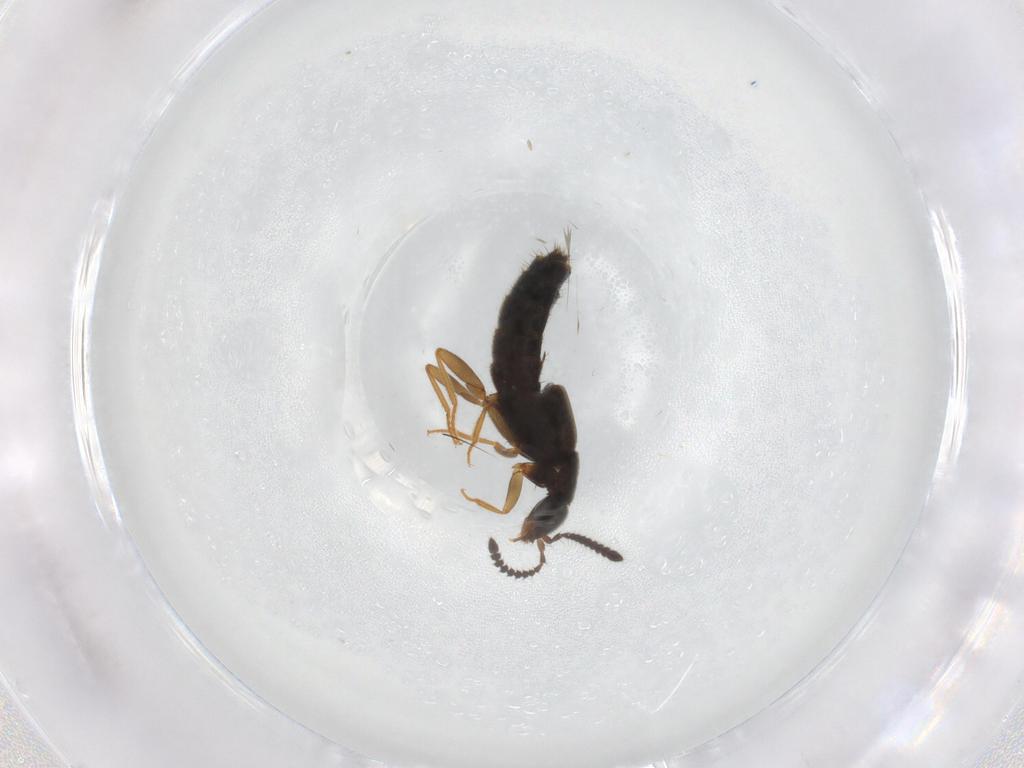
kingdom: Animalia
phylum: Arthropoda
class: Insecta
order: Coleoptera
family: Staphylinidae
